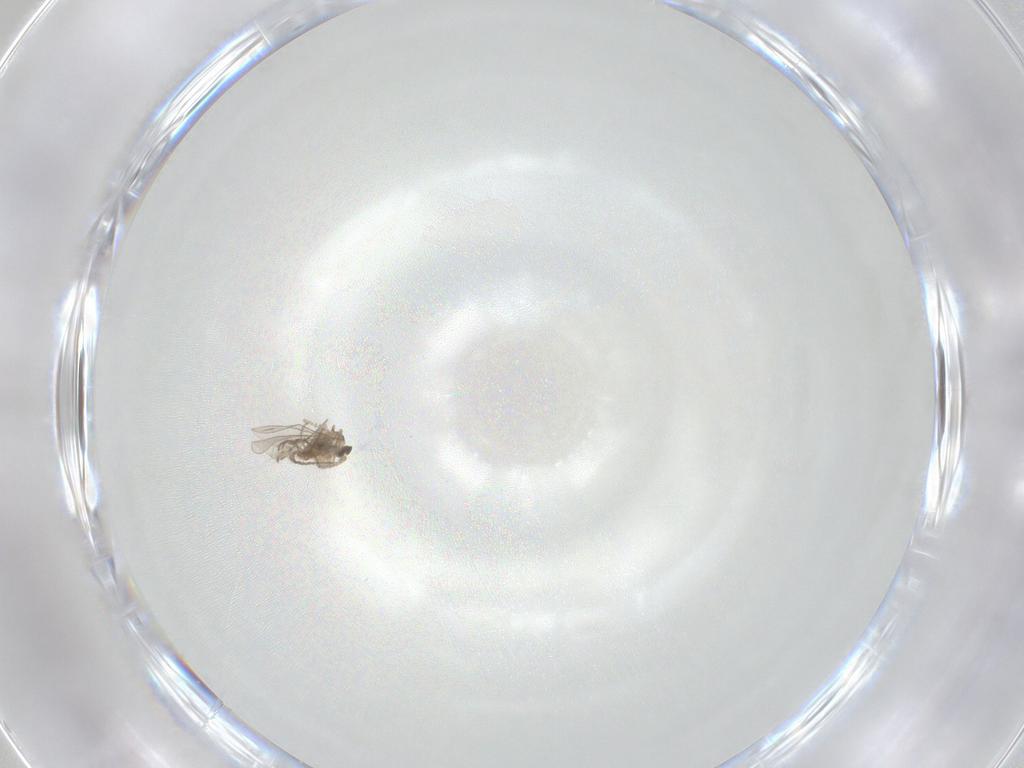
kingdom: Animalia
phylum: Arthropoda
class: Insecta
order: Diptera
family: Cecidomyiidae
